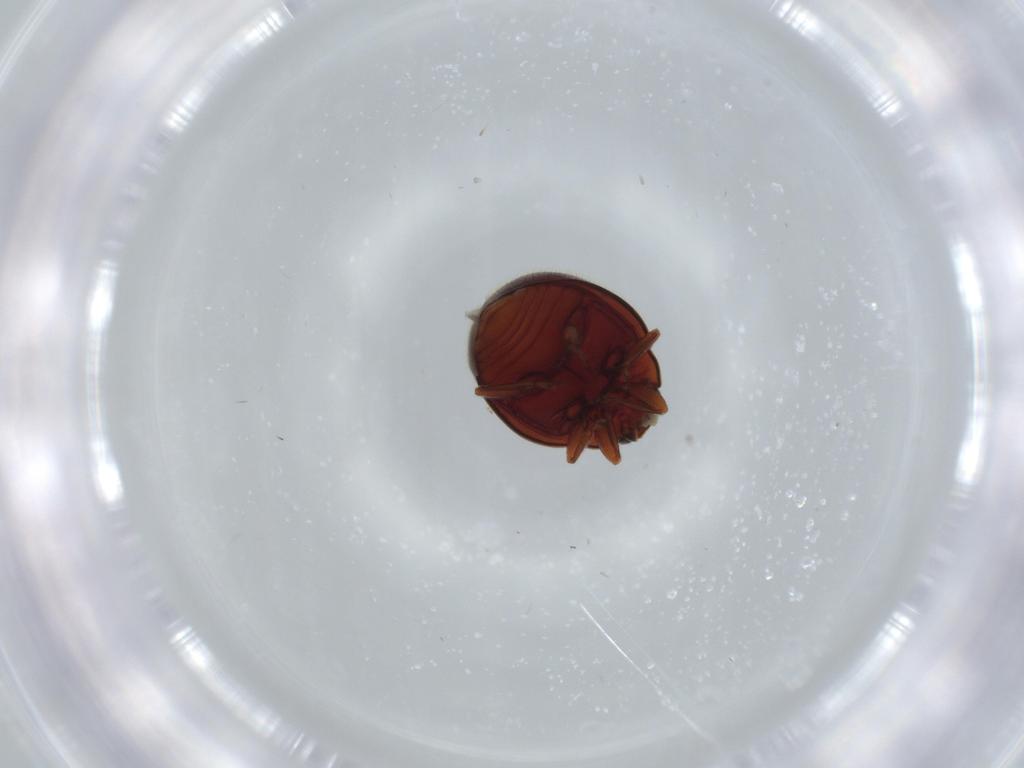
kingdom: Animalia
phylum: Arthropoda
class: Insecta
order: Coleoptera
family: Coccinellidae
